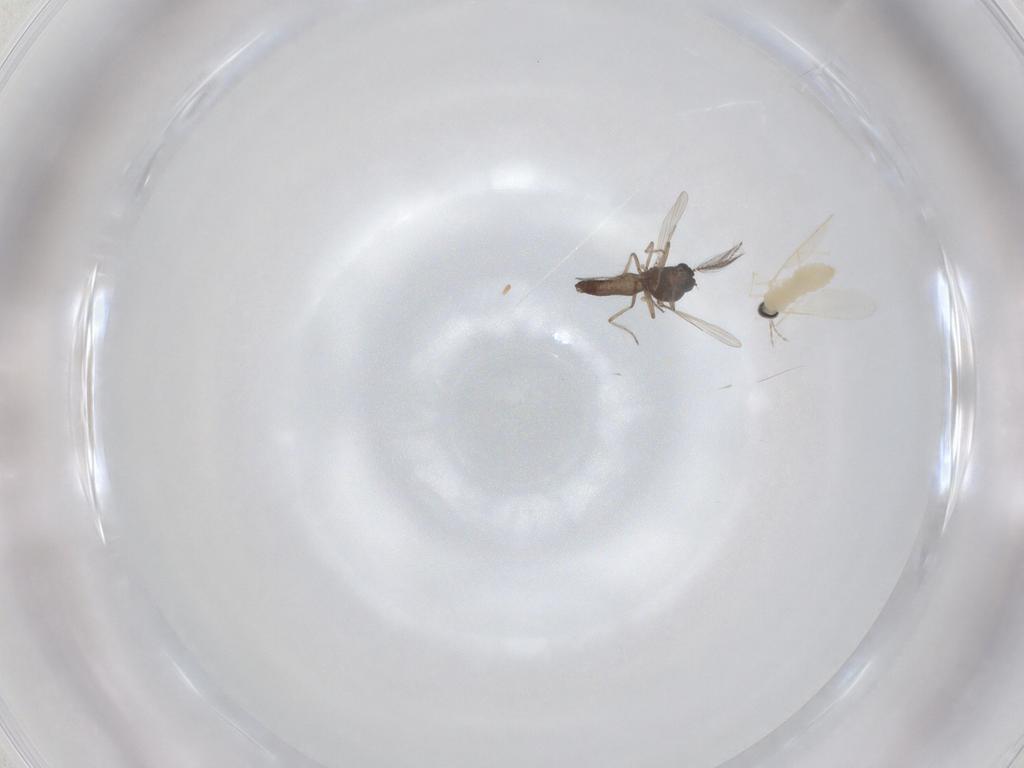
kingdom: Animalia
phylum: Arthropoda
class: Insecta
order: Diptera
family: Cecidomyiidae
